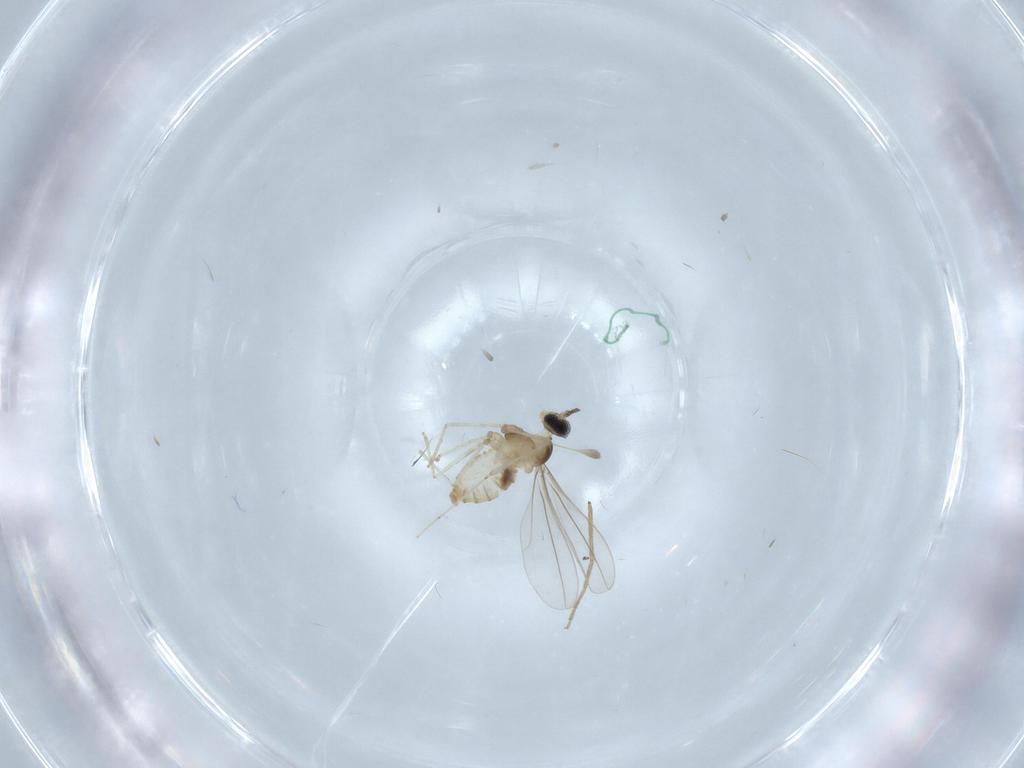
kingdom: Animalia
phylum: Arthropoda
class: Insecta
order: Diptera
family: Cecidomyiidae
